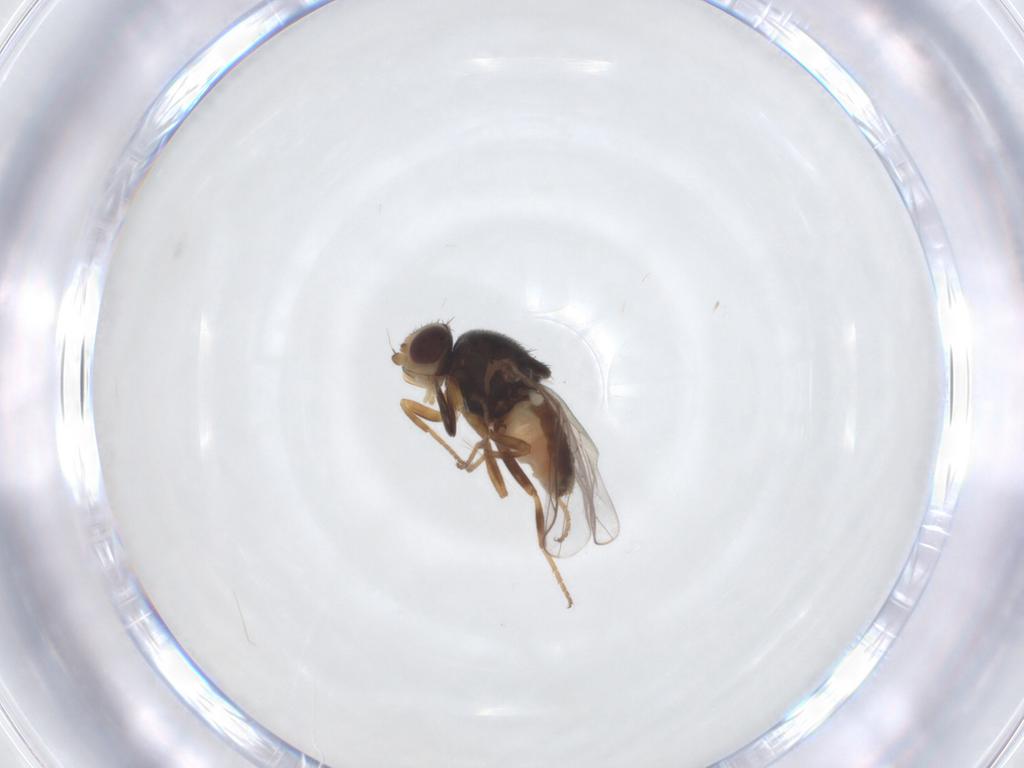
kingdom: Animalia
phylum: Arthropoda
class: Insecta
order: Diptera
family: Chloropidae
